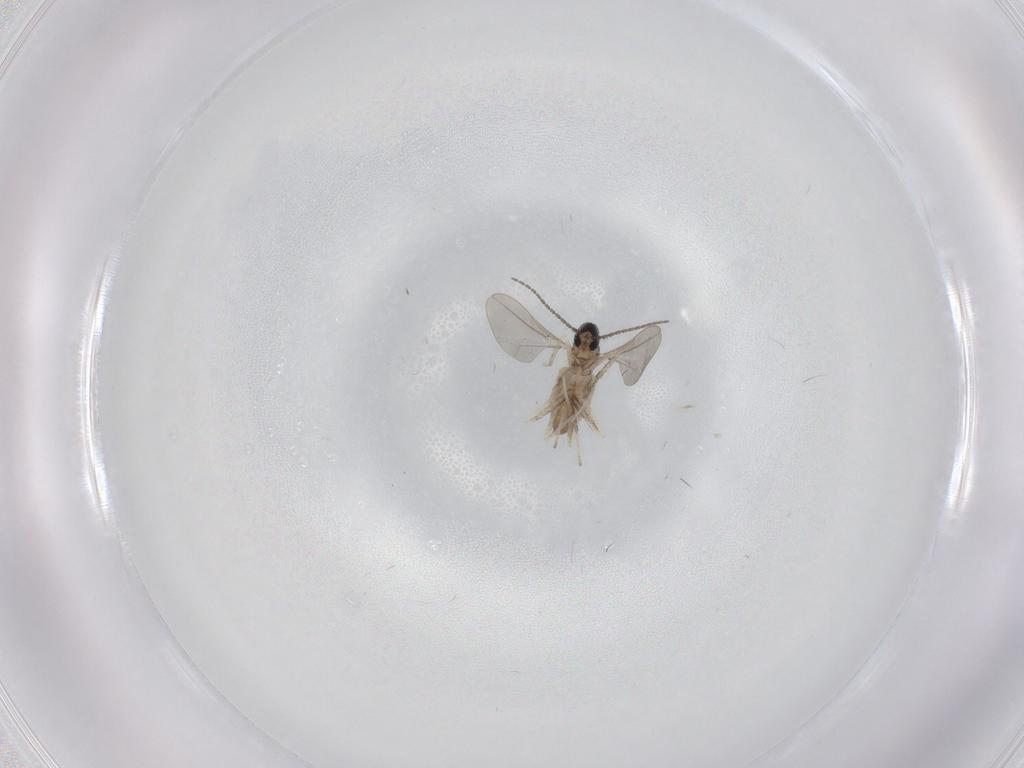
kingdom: Animalia
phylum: Arthropoda
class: Insecta
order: Diptera
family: Cecidomyiidae
